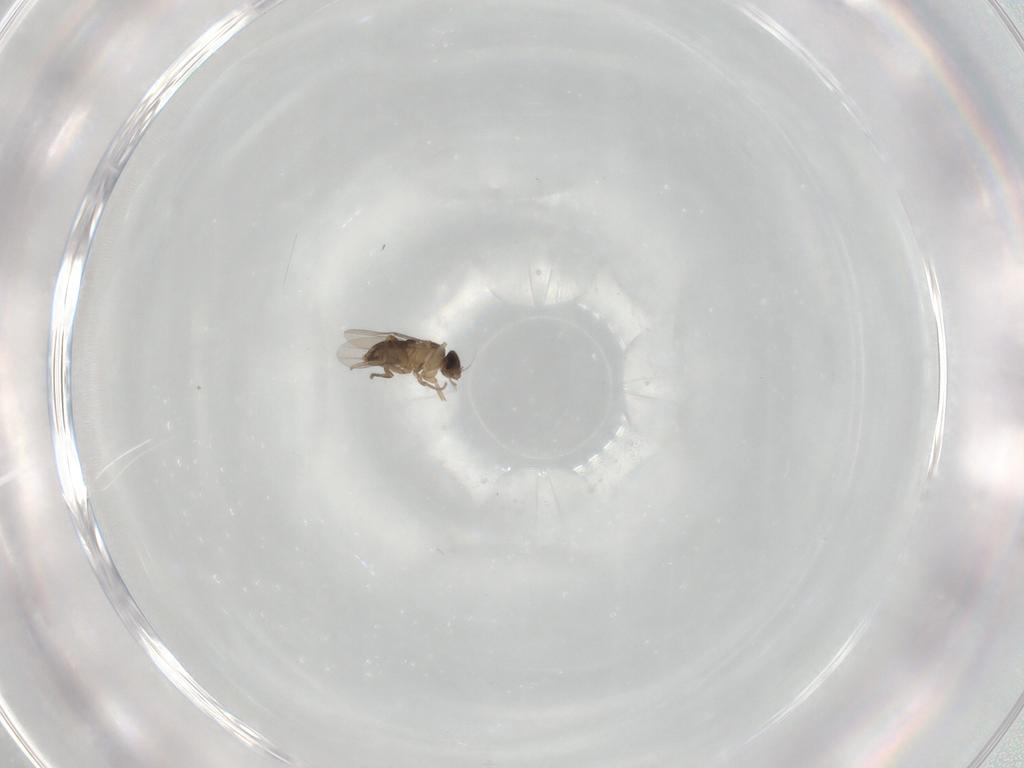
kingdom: Animalia
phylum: Arthropoda
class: Insecta
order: Diptera
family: Phoridae
